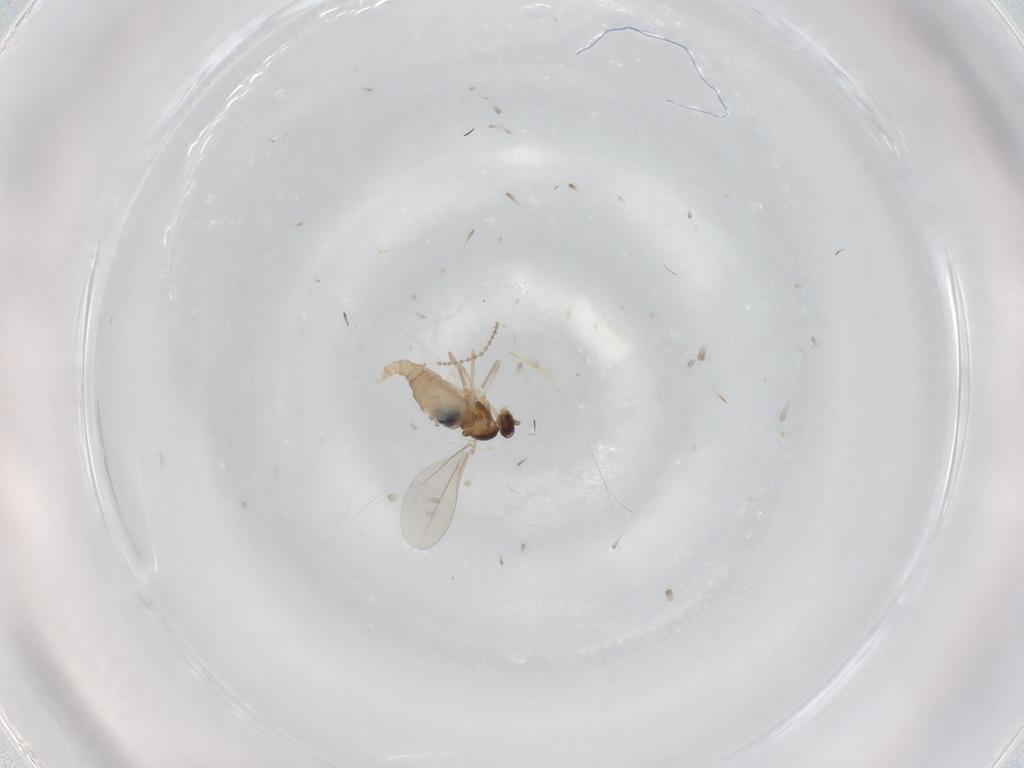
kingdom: Animalia
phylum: Arthropoda
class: Insecta
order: Diptera
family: Cecidomyiidae
